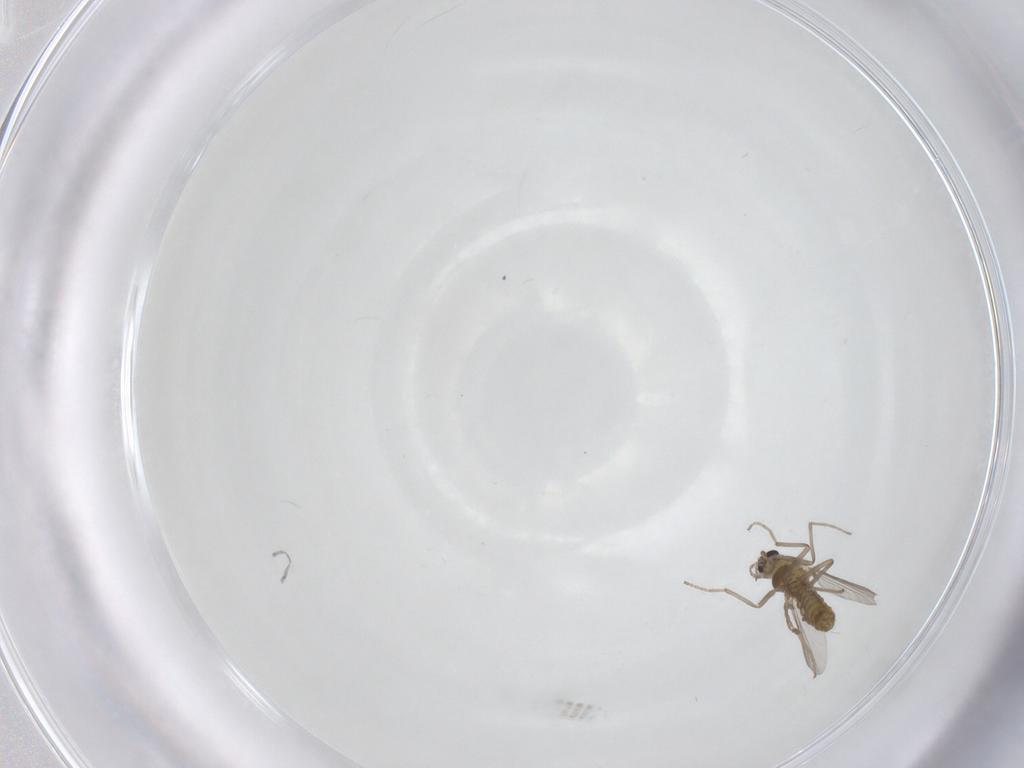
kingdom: Animalia
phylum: Arthropoda
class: Insecta
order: Diptera
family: Chironomidae
